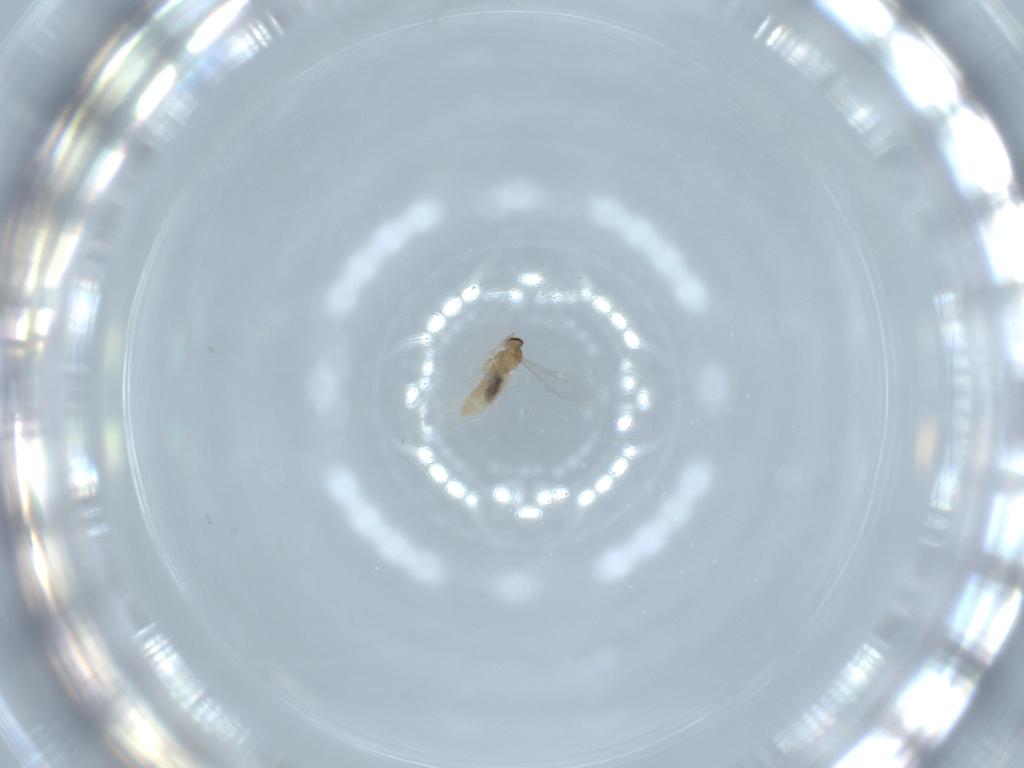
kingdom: Animalia
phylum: Arthropoda
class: Insecta
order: Diptera
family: Cecidomyiidae
